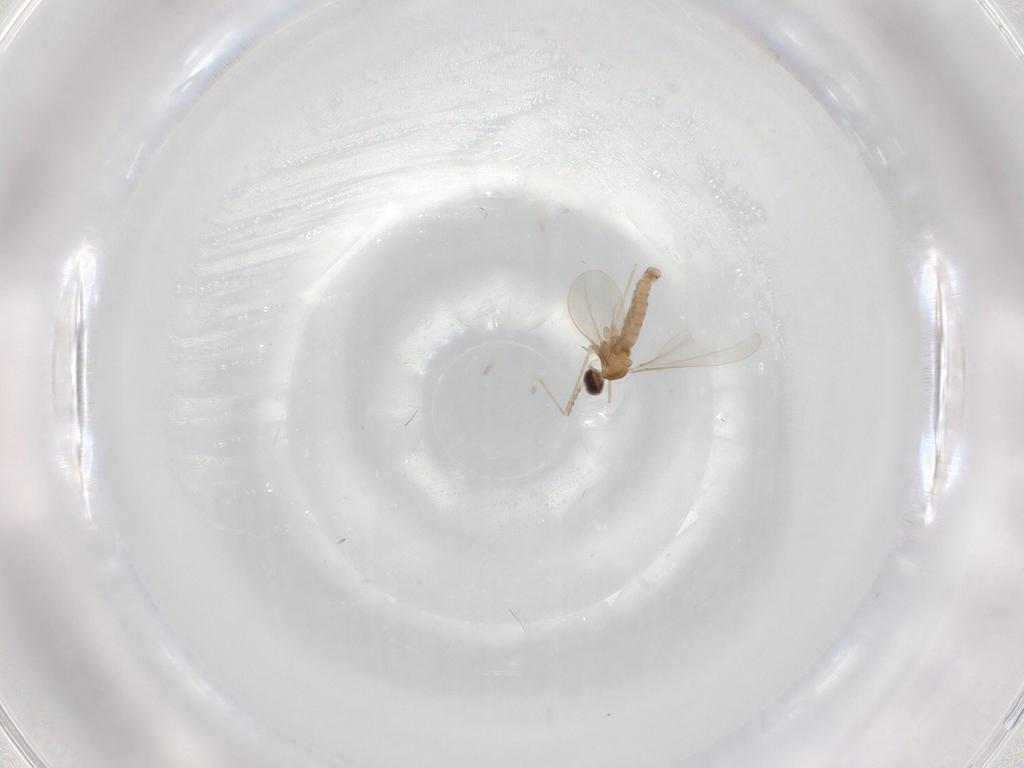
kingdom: Animalia
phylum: Arthropoda
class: Insecta
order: Diptera
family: Cecidomyiidae
